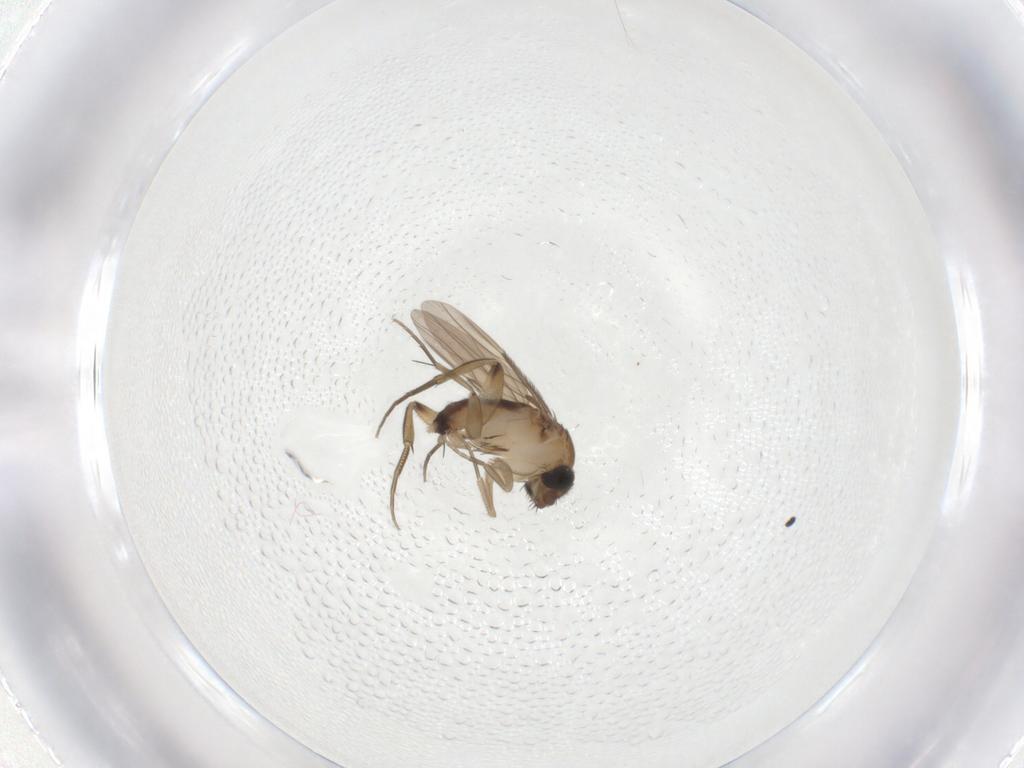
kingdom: Animalia
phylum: Arthropoda
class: Insecta
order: Diptera
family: Phoridae
